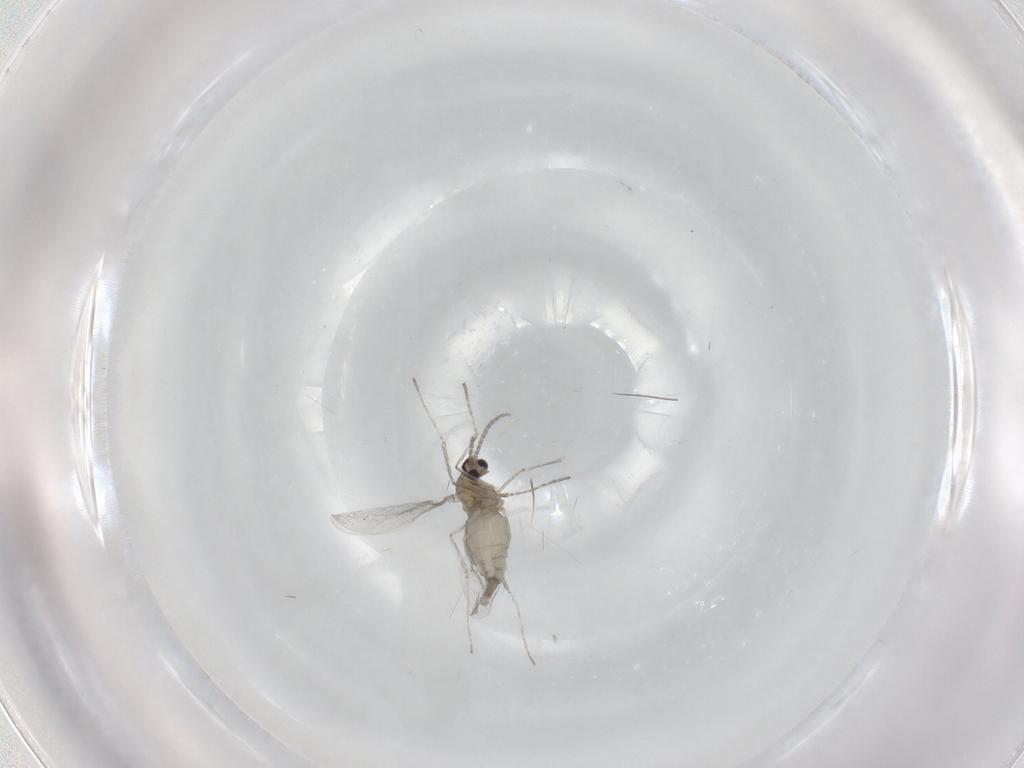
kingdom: Animalia
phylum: Arthropoda
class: Insecta
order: Diptera
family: Cecidomyiidae
